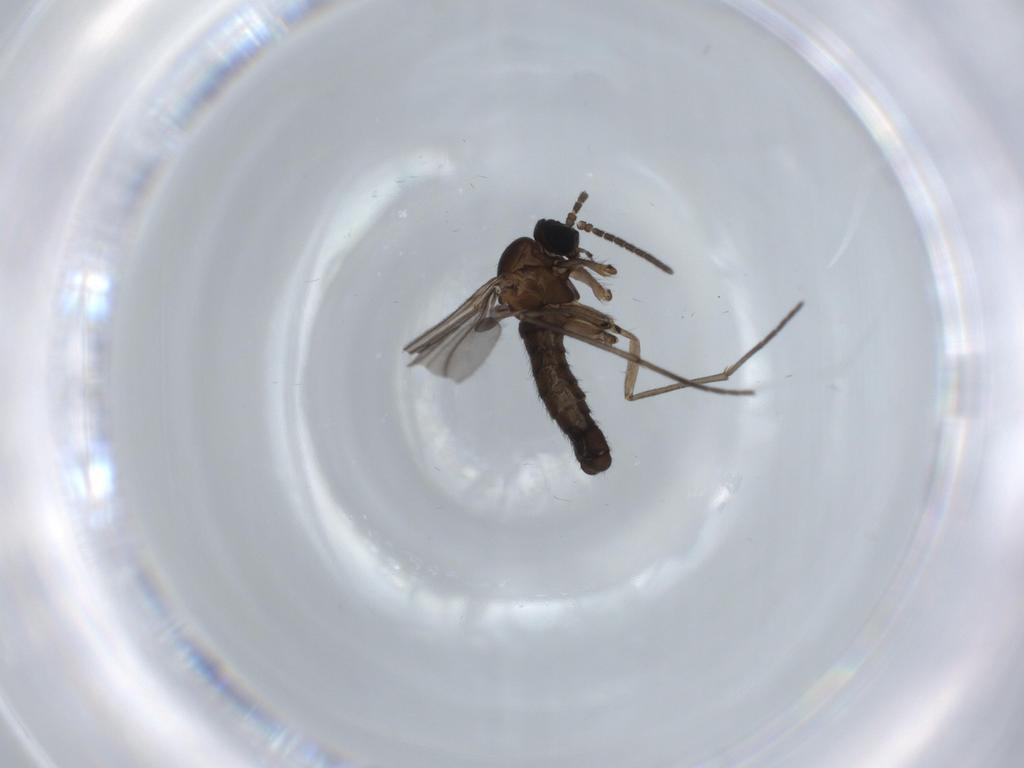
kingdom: Animalia
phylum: Arthropoda
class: Insecta
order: Diptera
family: Sciaridae
